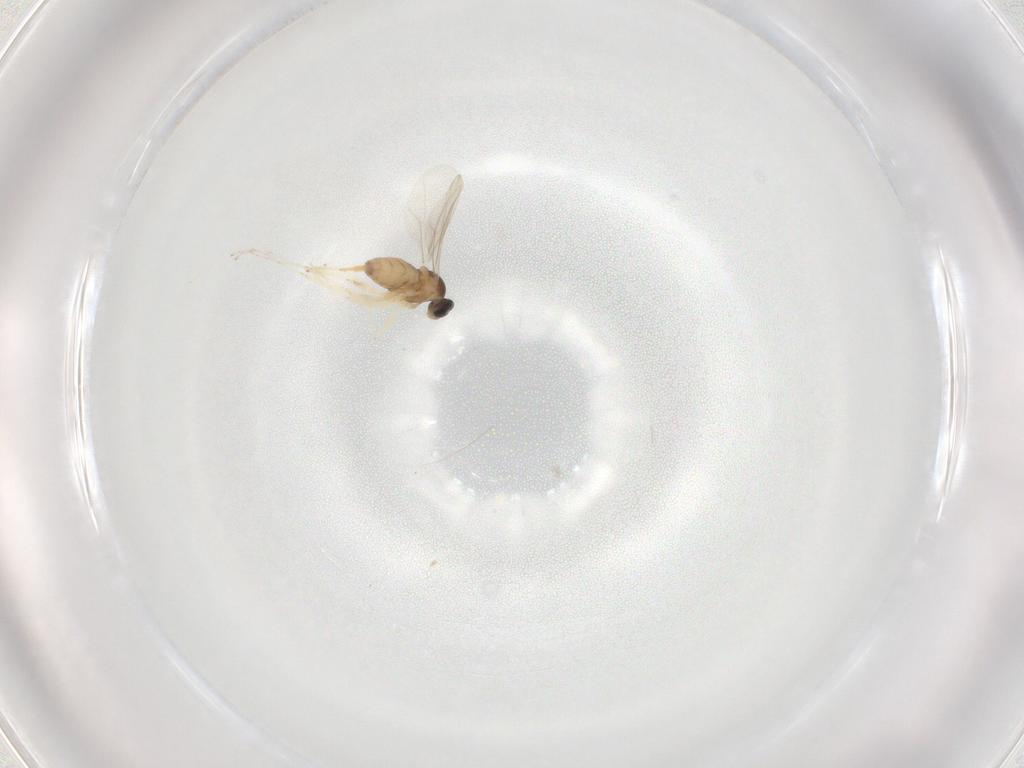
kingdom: Animalia
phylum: Arthropoda
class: Insecta
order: Diptera
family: Cecidomyiidae
